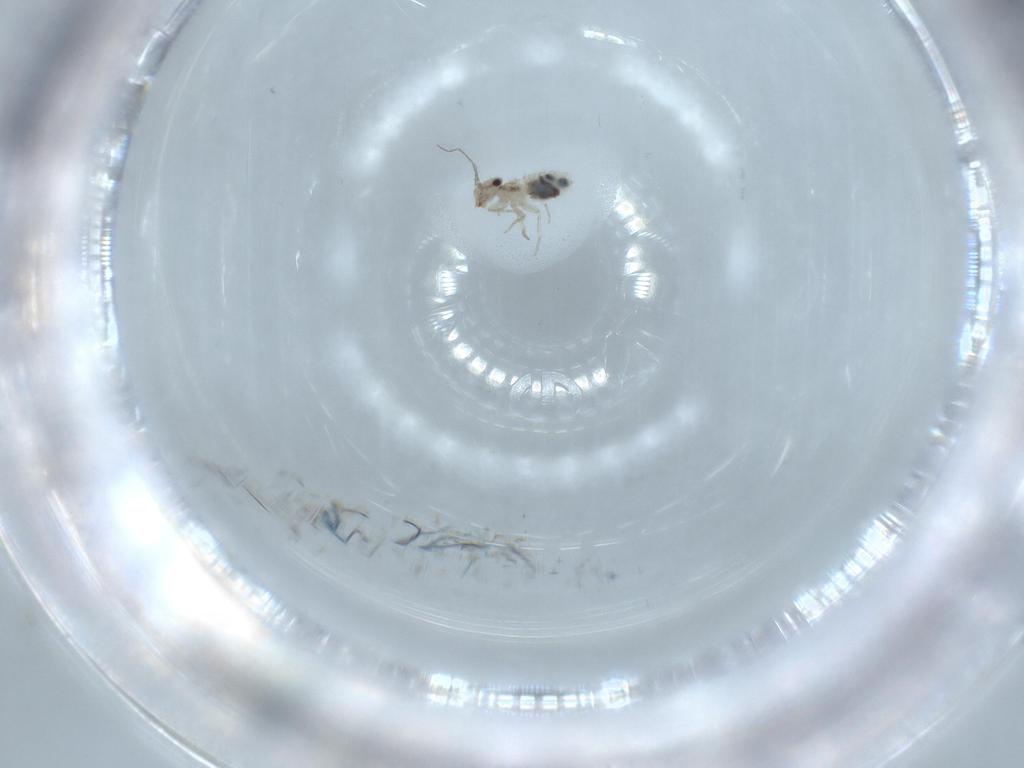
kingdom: Animalia
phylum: Arthropoda
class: Insecta
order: Psocodea
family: Lepidopsocidae
